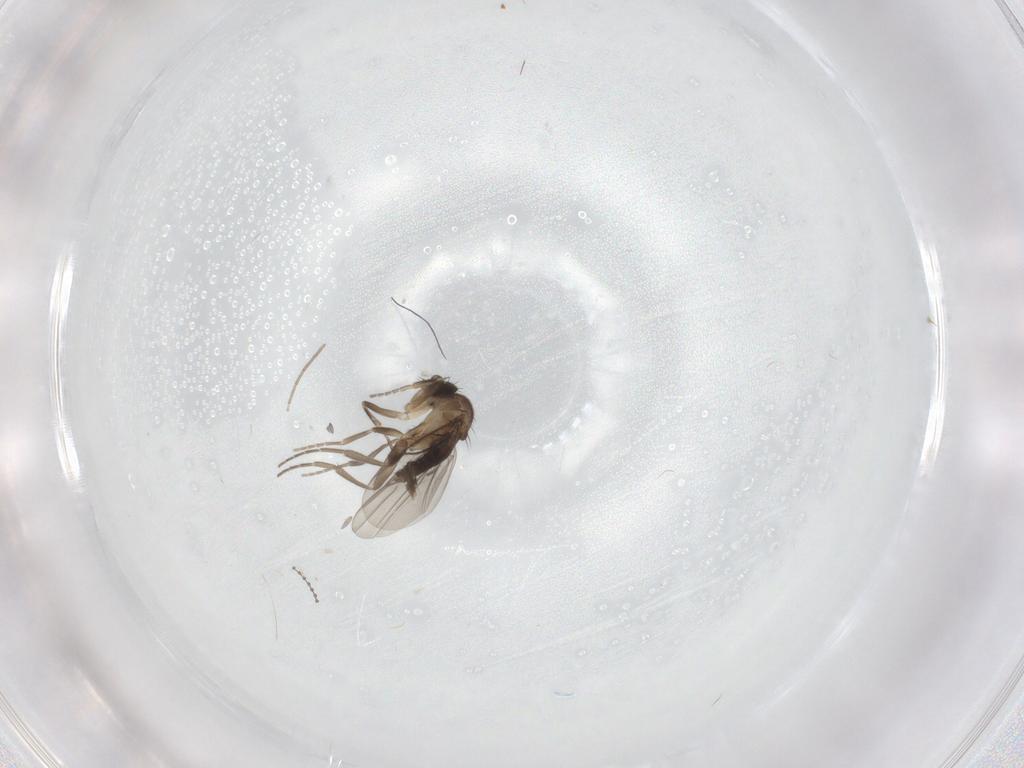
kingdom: Animalia
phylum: Arthropoda
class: Insecta
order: Diptera
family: Cecidomyiidae
